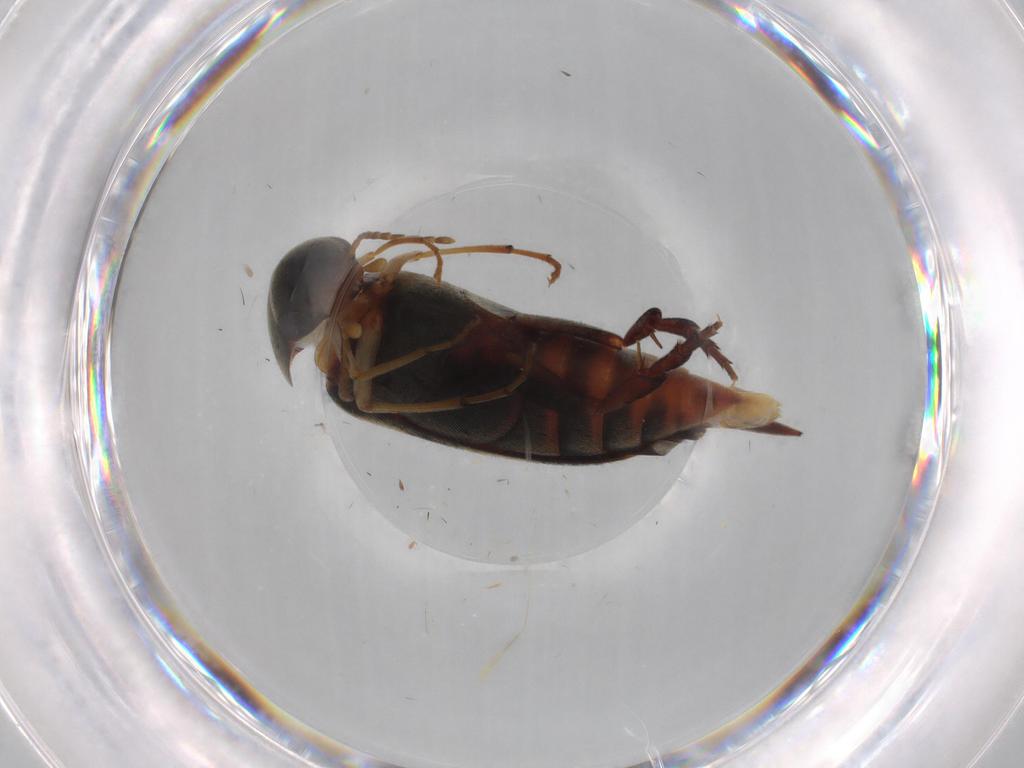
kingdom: Animalia
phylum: Arthropoda
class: Insecta
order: Coleoptera
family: Mordellidae
